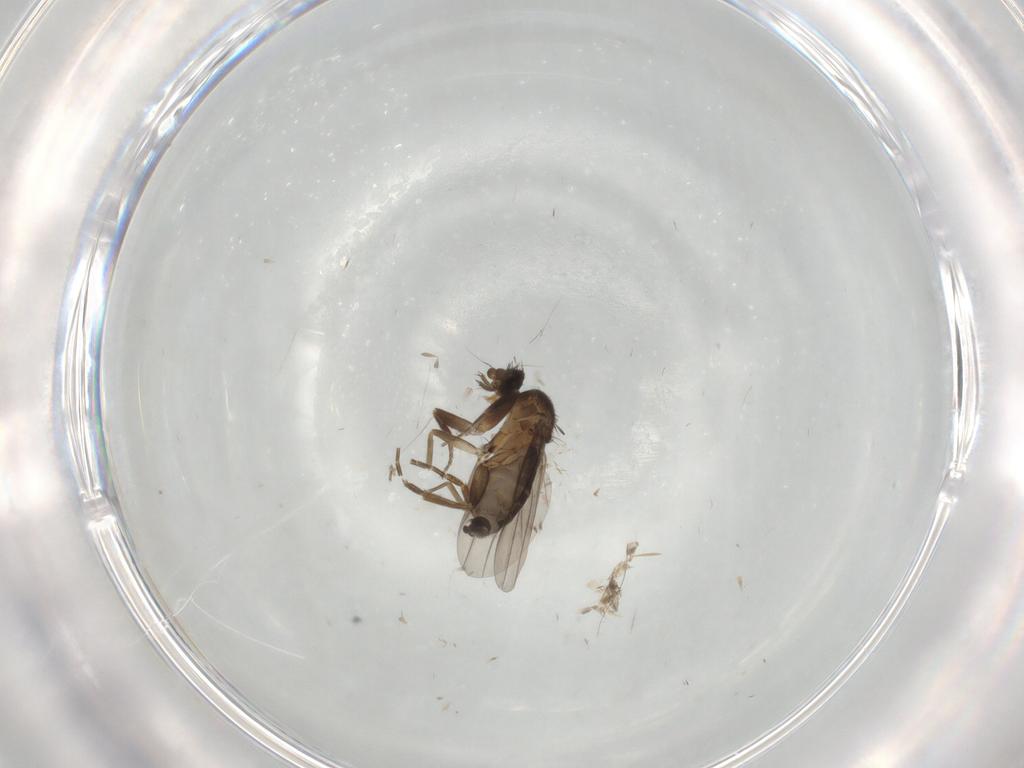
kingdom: Animalia
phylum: Arthropoda
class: Insecta
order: Diptera
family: Cecidomyiidae
